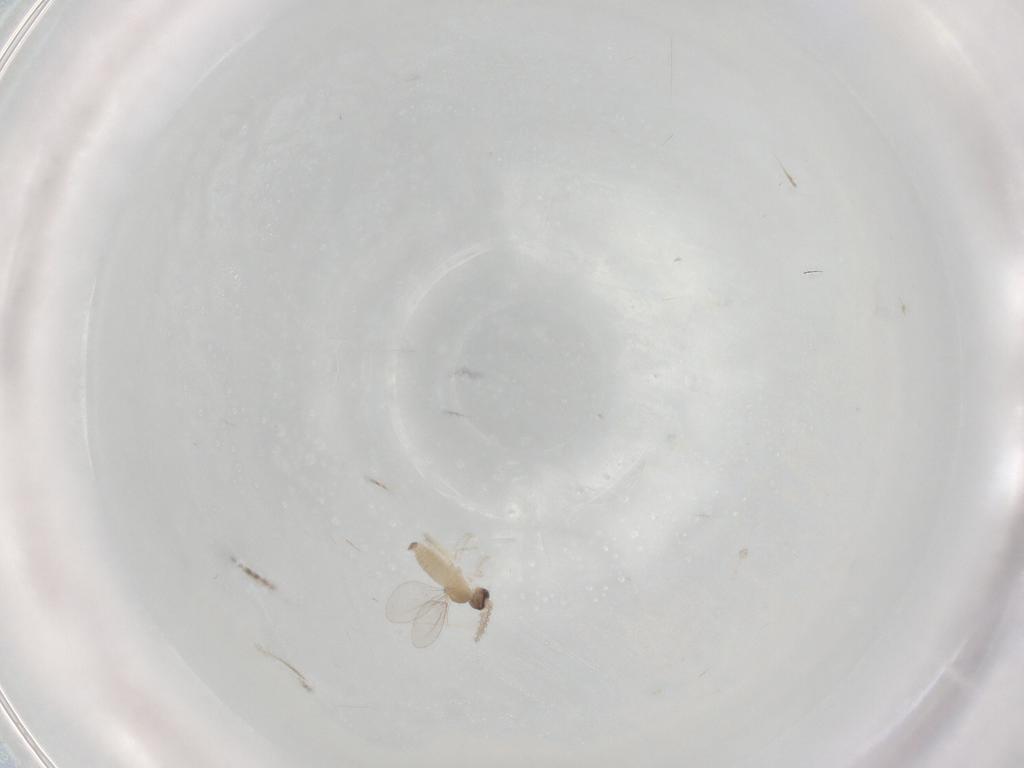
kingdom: Animalia
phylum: Arthropoda
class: Insecta
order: Diptera
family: Cecidomyiidae
